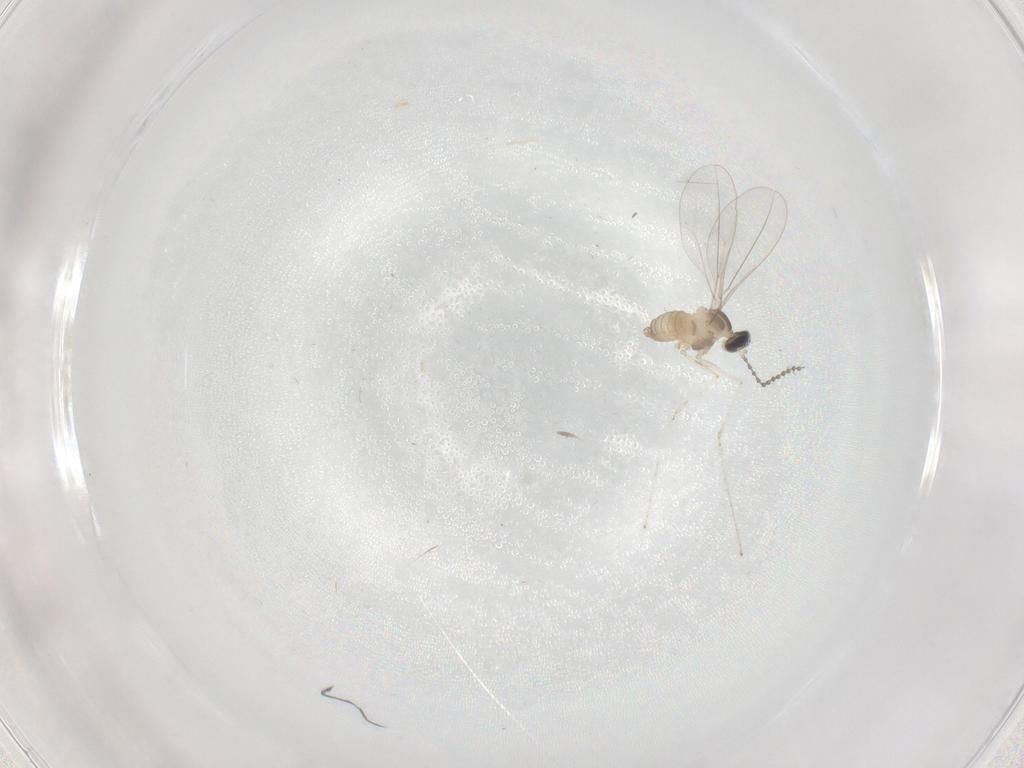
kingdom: Animalia
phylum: Arthropoda
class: Insecta
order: Diptera
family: Cecidomyiidae
